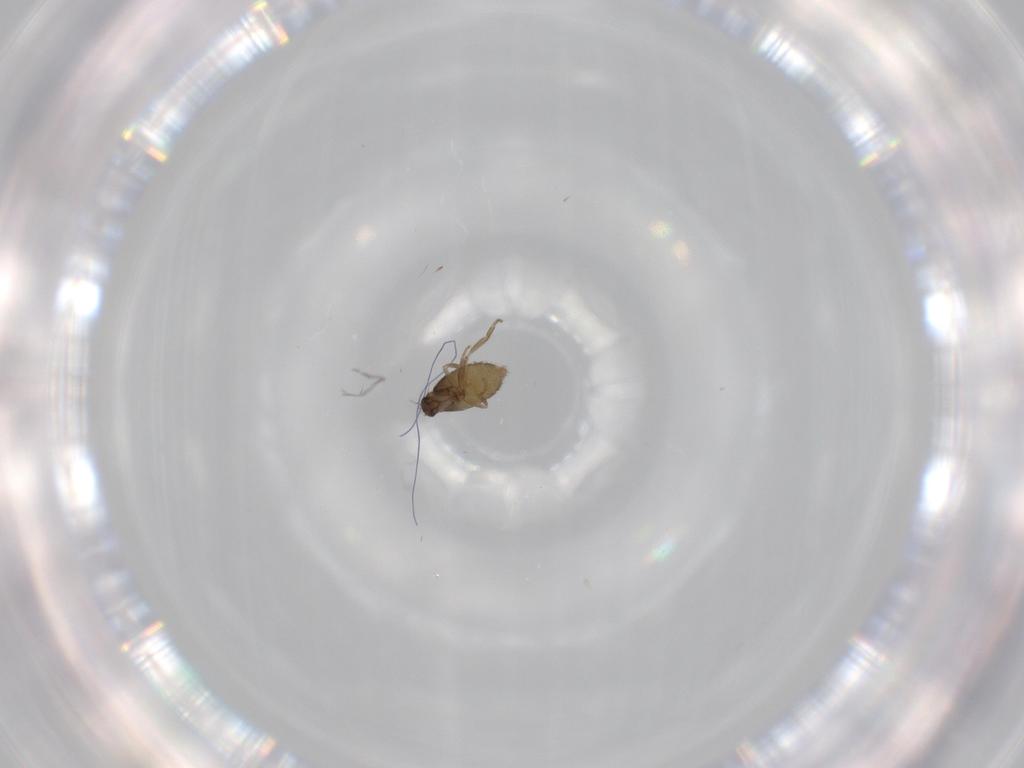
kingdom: Animalia
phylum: Arthropoda
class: Insecta
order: Diptera
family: Phoridae
